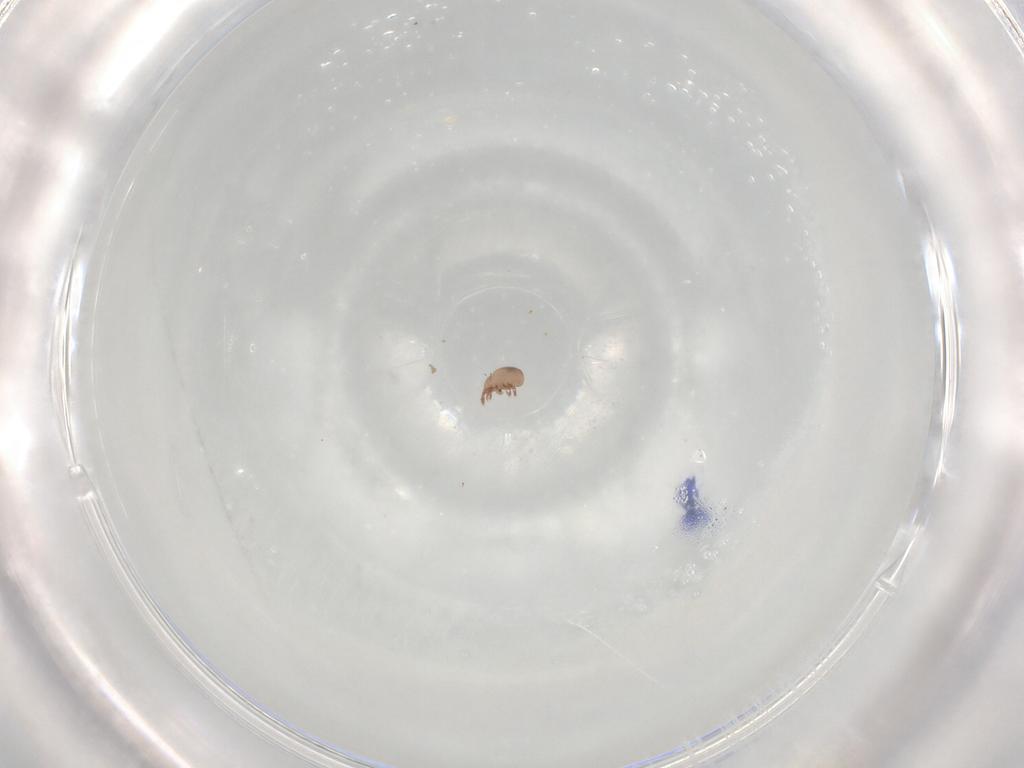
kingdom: Animalia
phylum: Arthropoda
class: Arachnida
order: Sarcoptiformes
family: Eremaeidae
